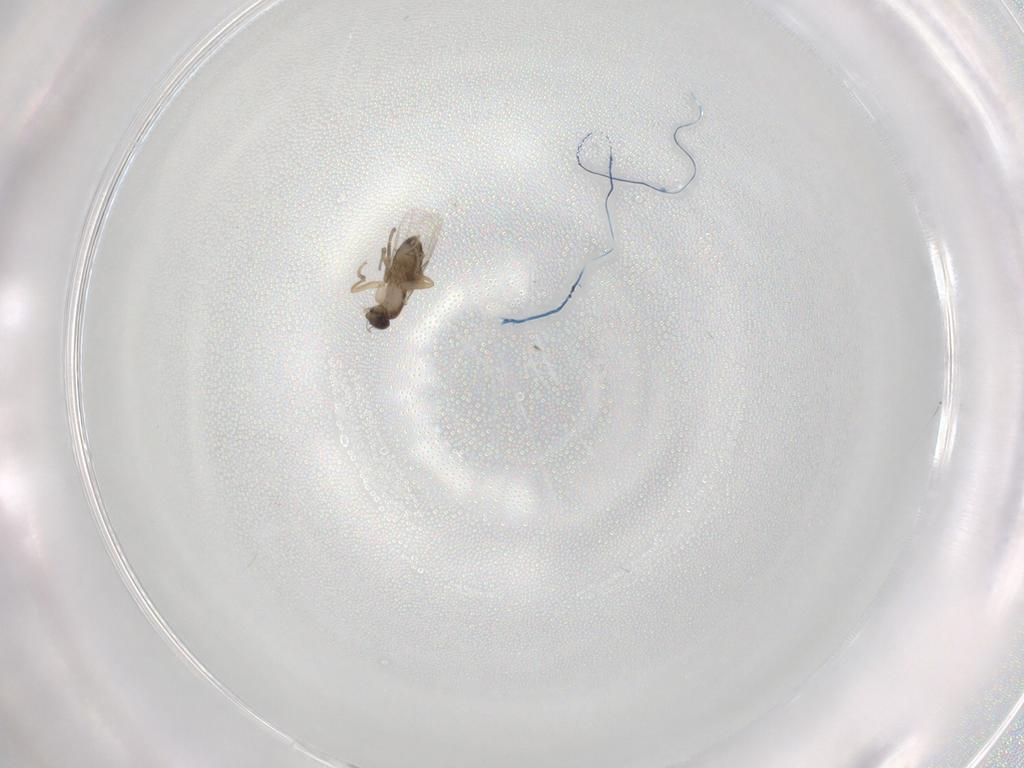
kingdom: Animalia
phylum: Arthropoda
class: Insecta
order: Diptera
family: Phoridae
